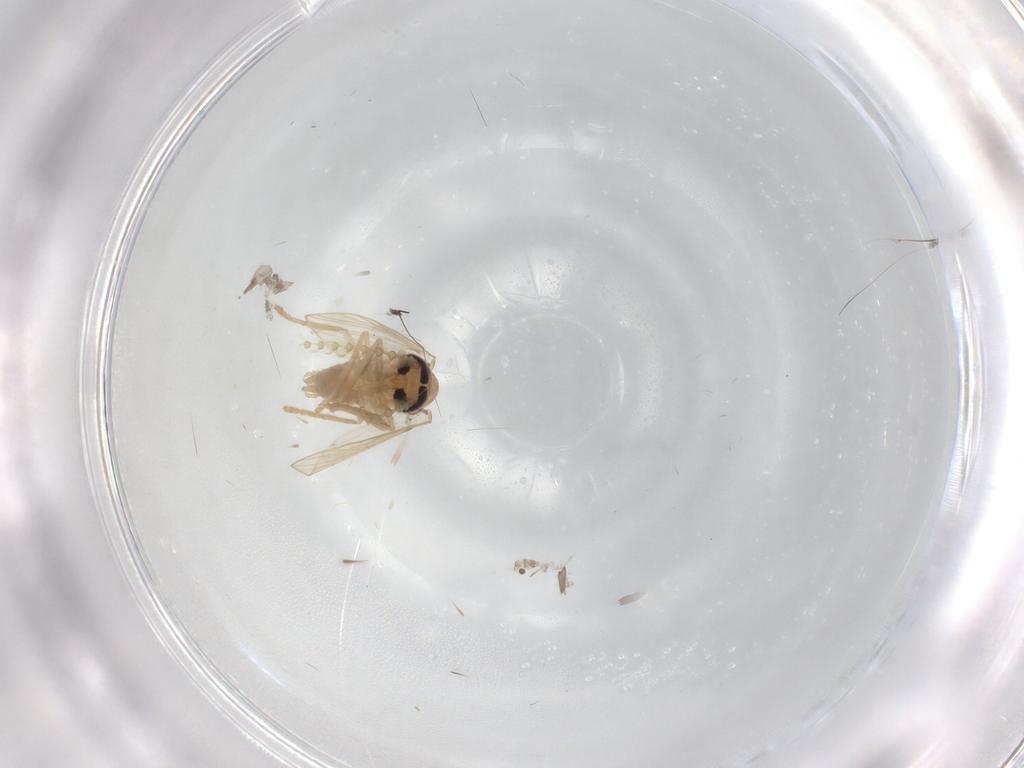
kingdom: Animalia
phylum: Arthropoda
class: Insecta
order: Diptera
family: Psychodidae
